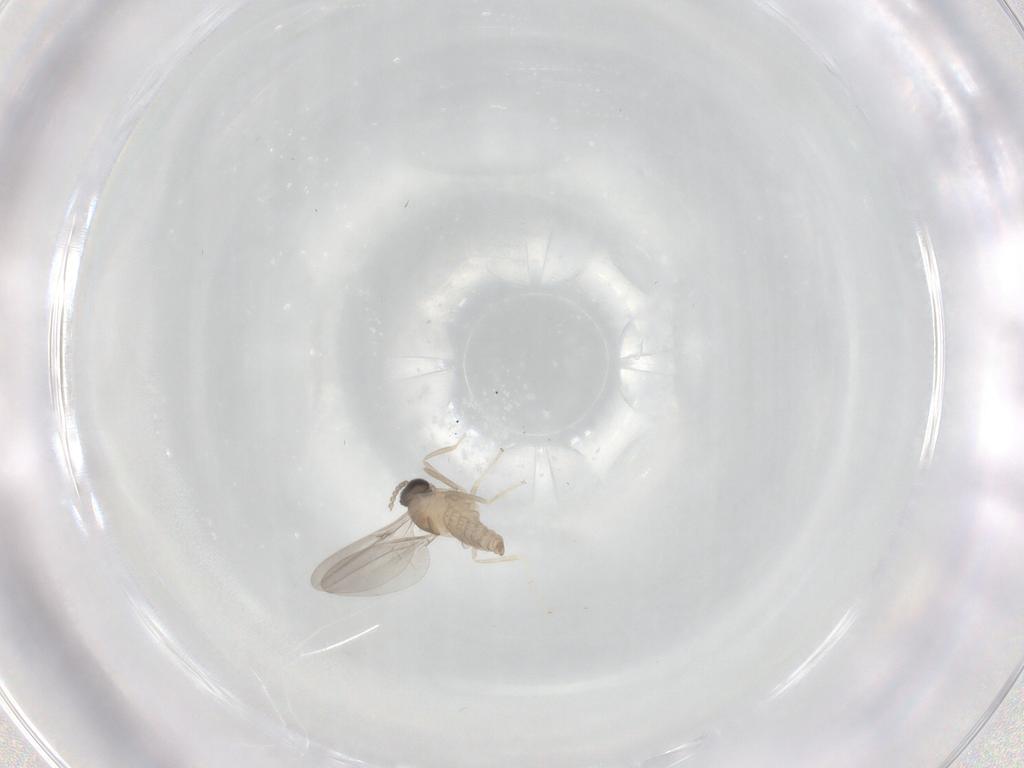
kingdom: Animalia
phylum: Arthropoda
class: Insecta
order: Diptera
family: Cecidomyiidae
